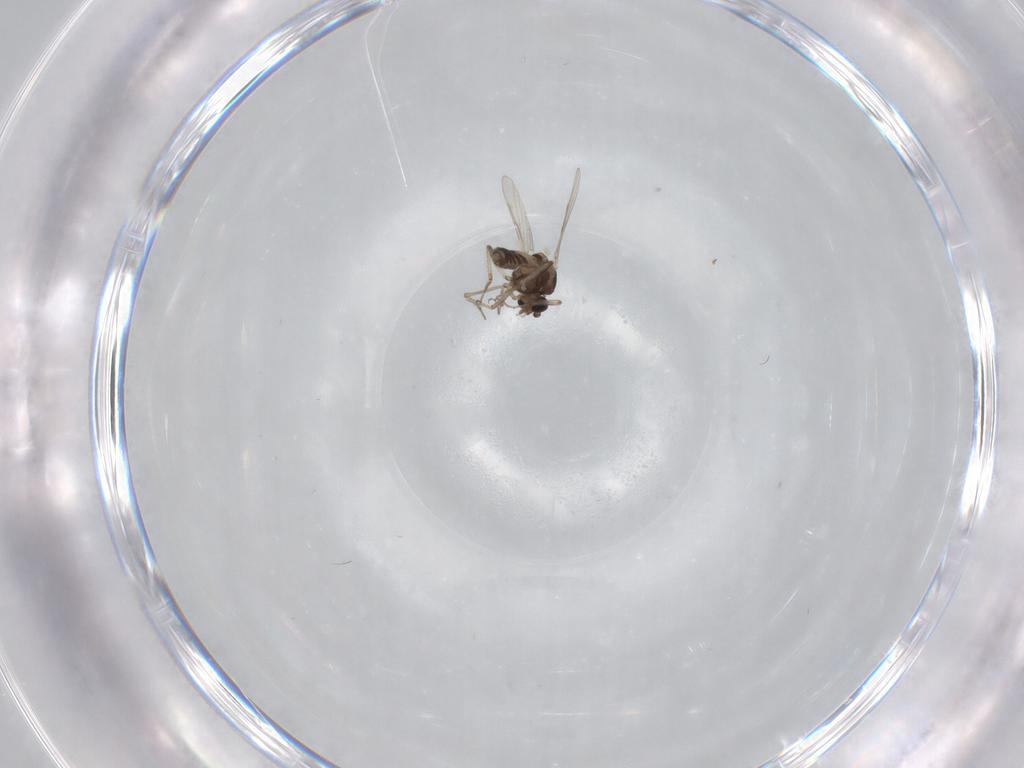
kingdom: Animalia
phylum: Arthropoda
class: Insecta
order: Diptera
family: Ceratopogonidae
